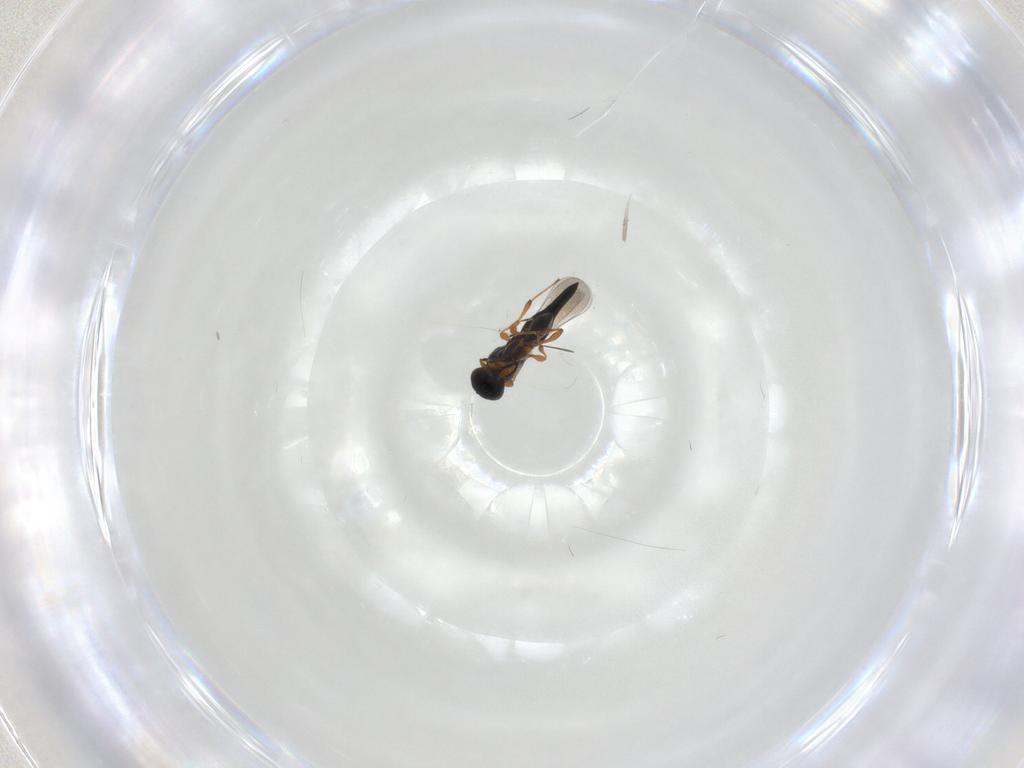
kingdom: Animalia
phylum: Arthropoda
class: Insecta
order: Hymenoptera
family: Platygastridae
